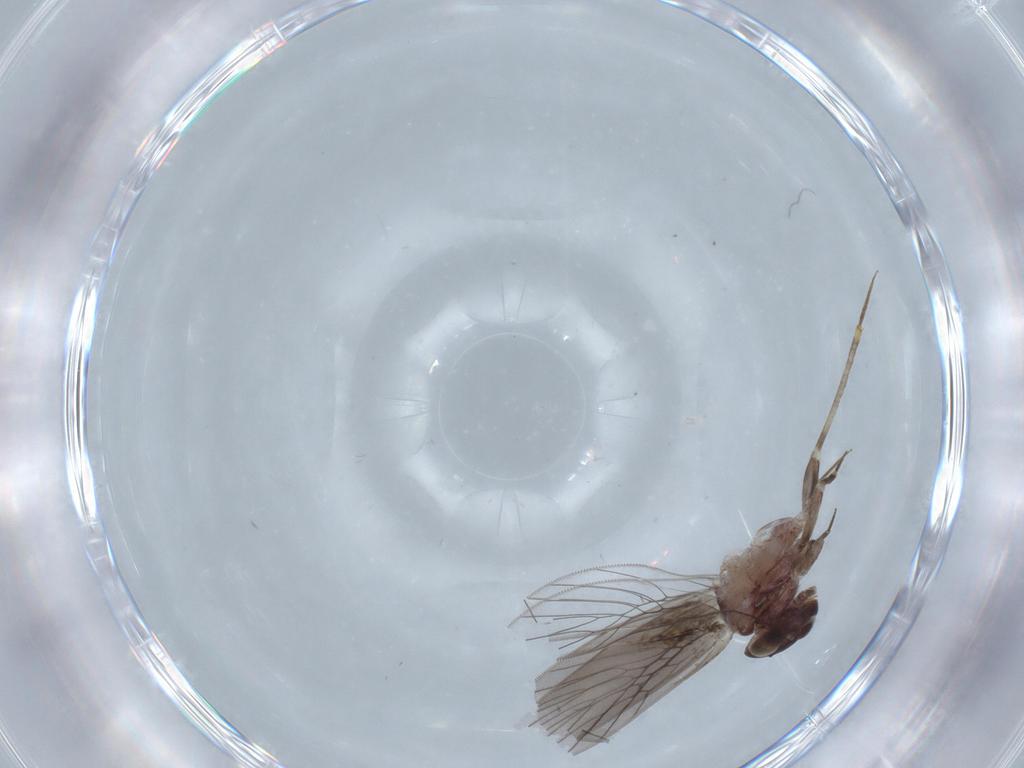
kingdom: Animalia
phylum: Arthropoda
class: Insecta
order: Psocodea
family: Lepidopsocidae
